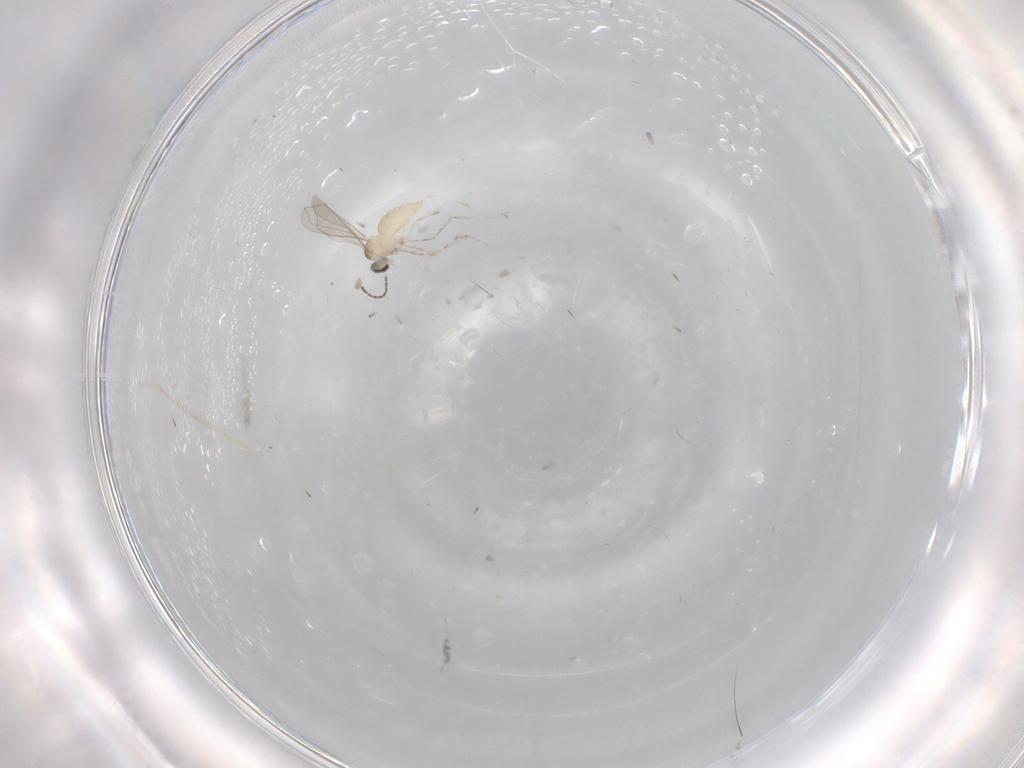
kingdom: Animalia
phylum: Arthropoda
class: Insecta
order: Diptera
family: Cecidomyiidae
